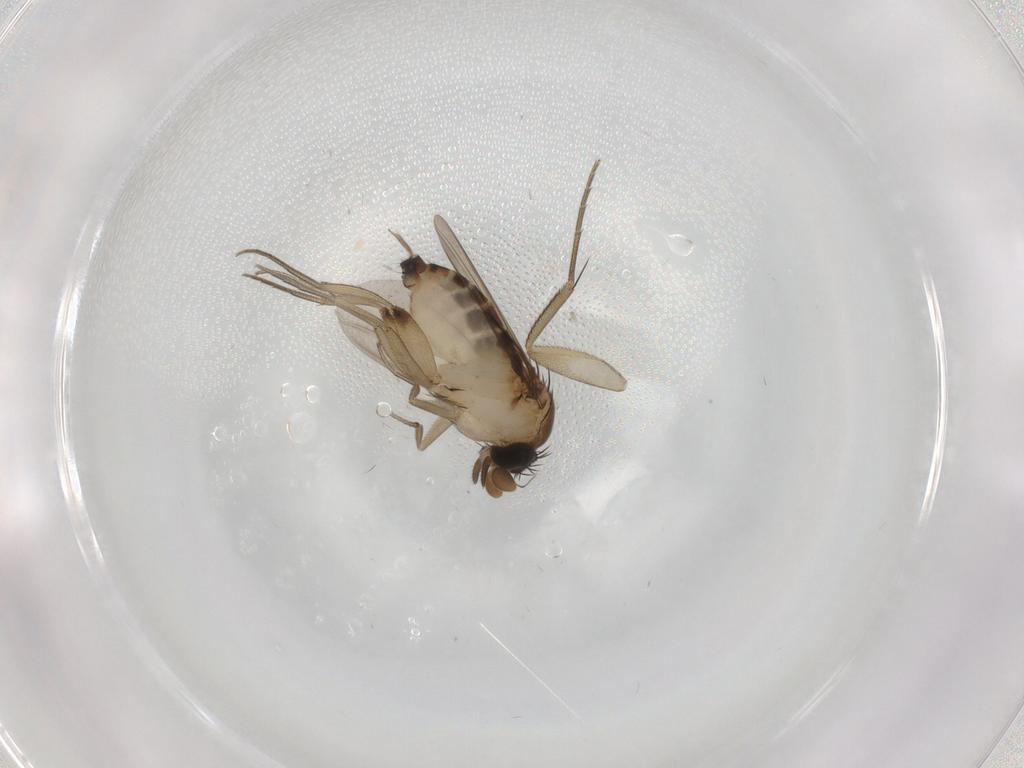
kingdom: Animalia
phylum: Arthropoda
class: Insecta
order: Diptera
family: Phoridae
